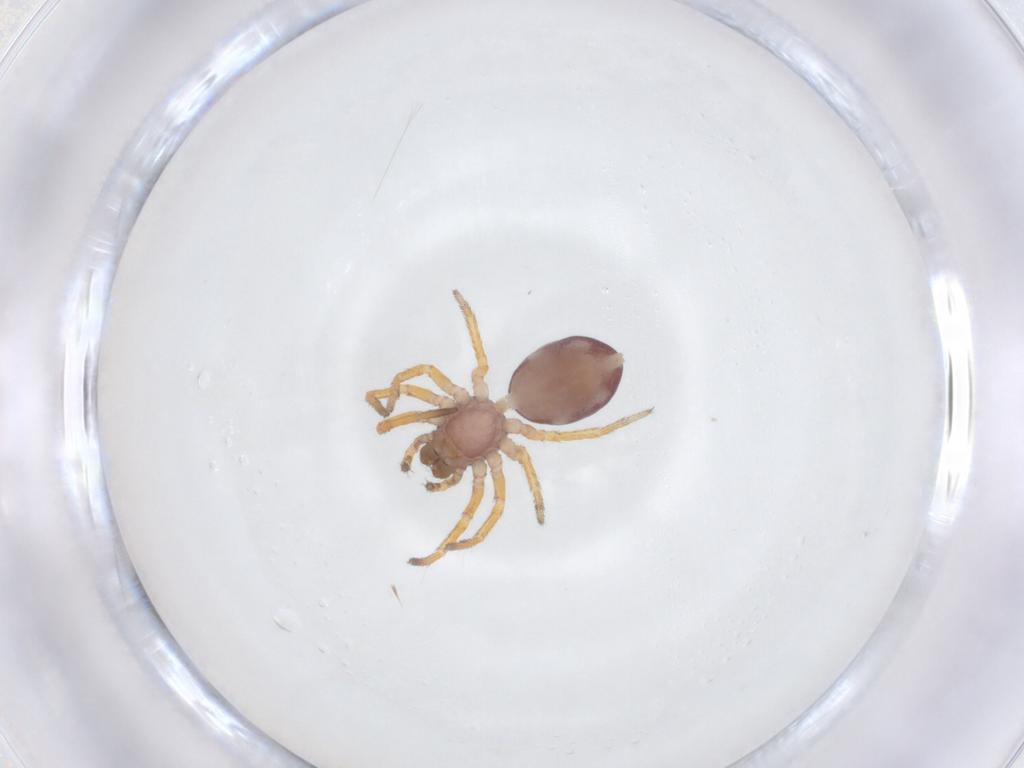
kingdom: Animalia
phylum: Arthropoda
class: Arachnida
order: Araneae
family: Zodariidae
